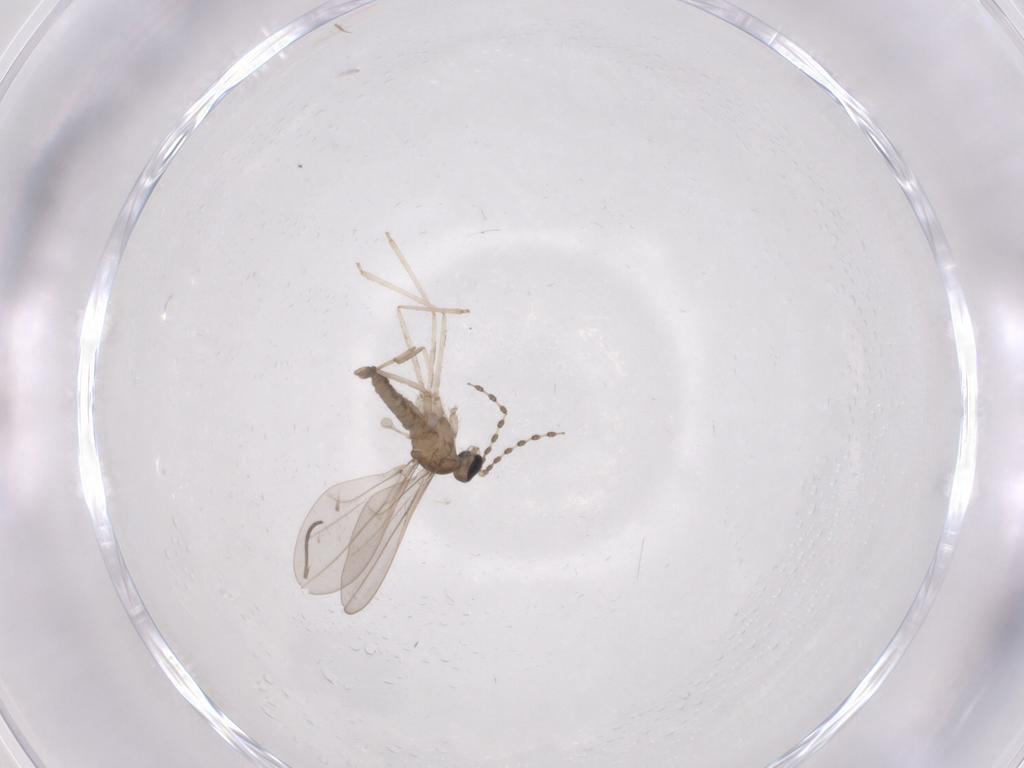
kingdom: Animalia
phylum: Arthropoda
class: Insecta
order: Diptera
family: Cecidomyiidae
